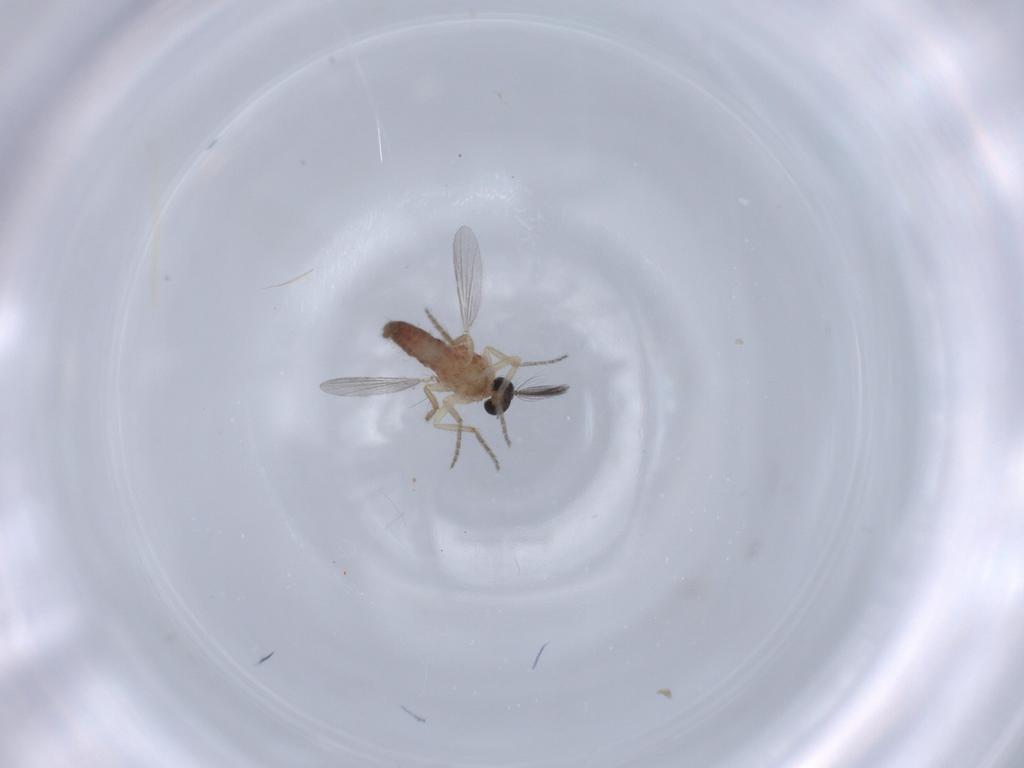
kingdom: Animalia
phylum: Arthropoda
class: Insecta
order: Diptera
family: Ceratopogonidae
